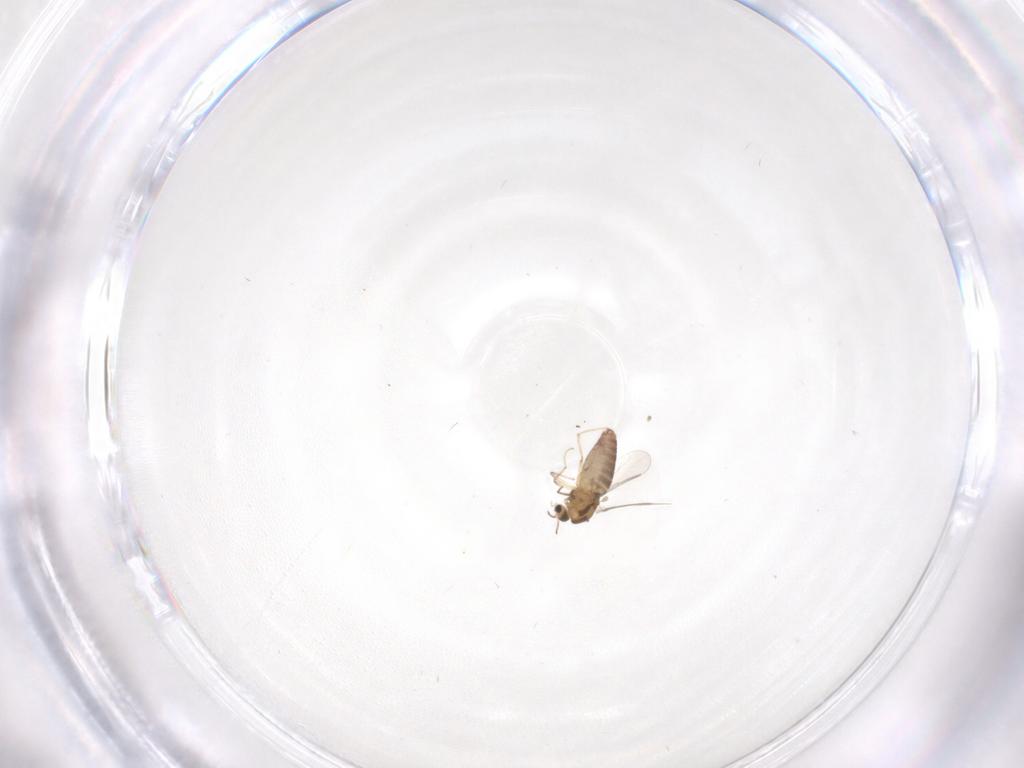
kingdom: Animalia
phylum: Arthropoda
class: Insecta
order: Diptera
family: Chironomidae
